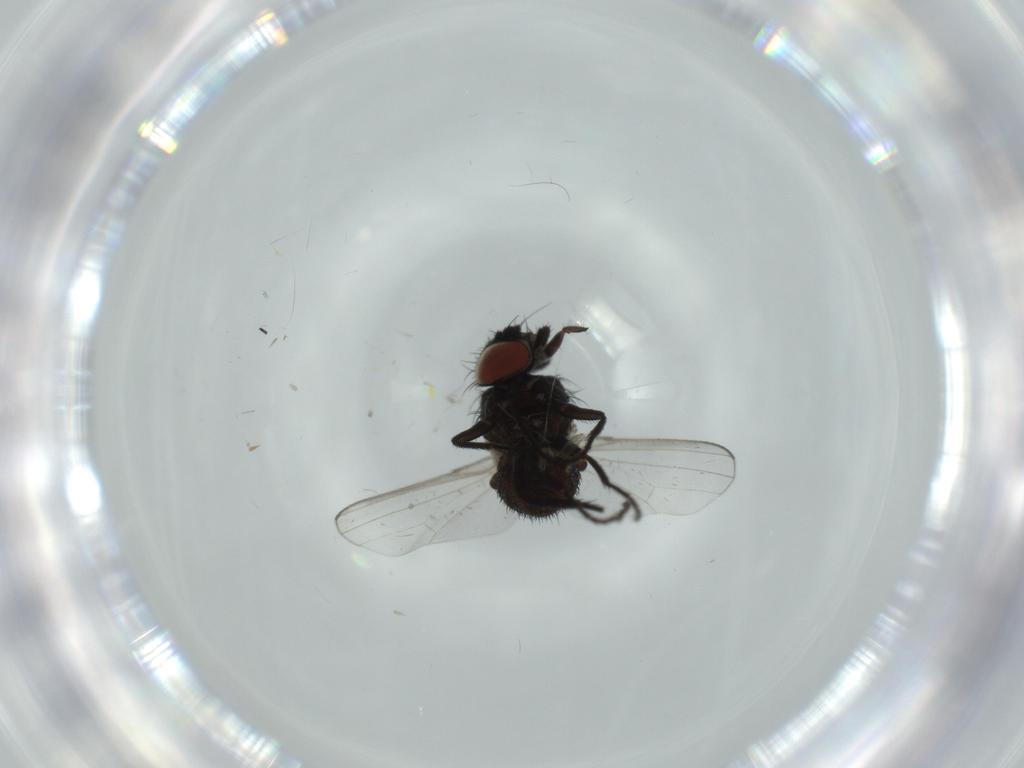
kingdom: Animalia
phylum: Arthropoda
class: Insecta
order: Diptera
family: Phoridae
